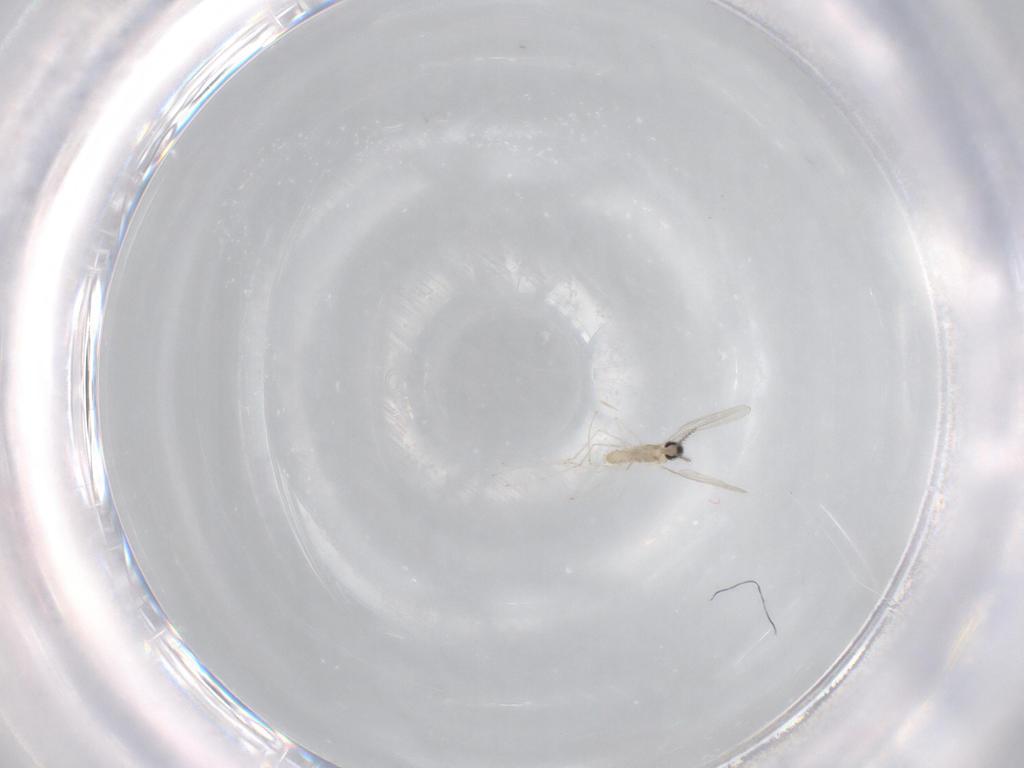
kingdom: Animalia
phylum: Arthropoda
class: Insecta
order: Diptera
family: Cecidomyiidae
